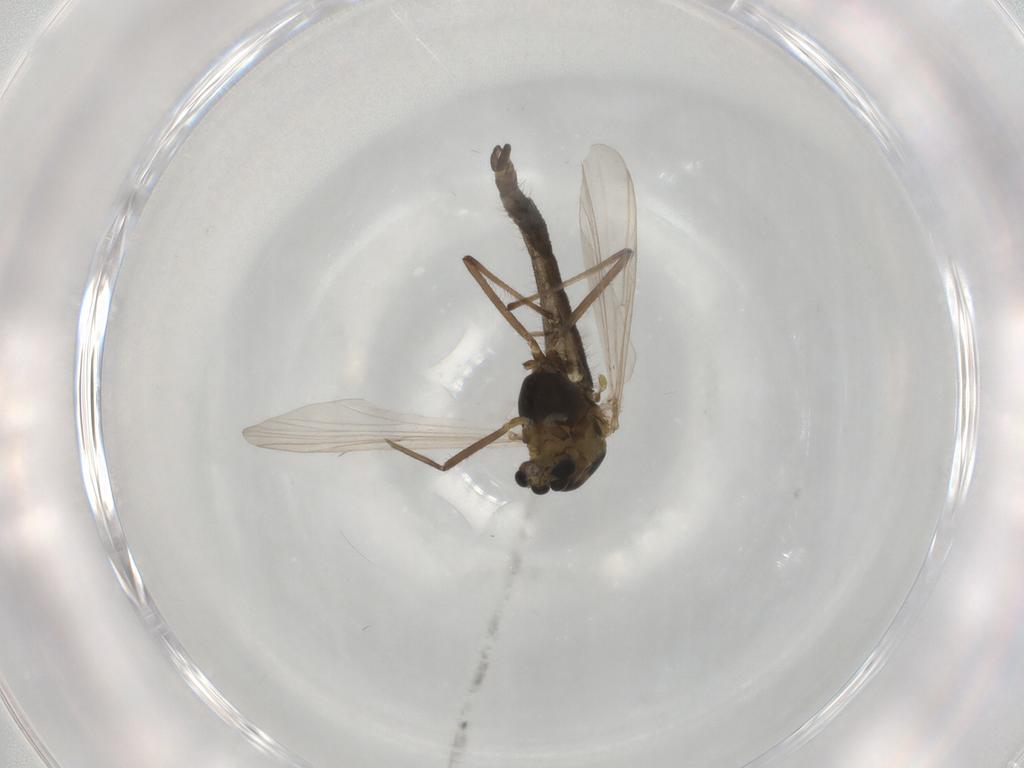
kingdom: Animalia
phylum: Arthropoda
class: Insecta
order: Diptera
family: Chironomidae
